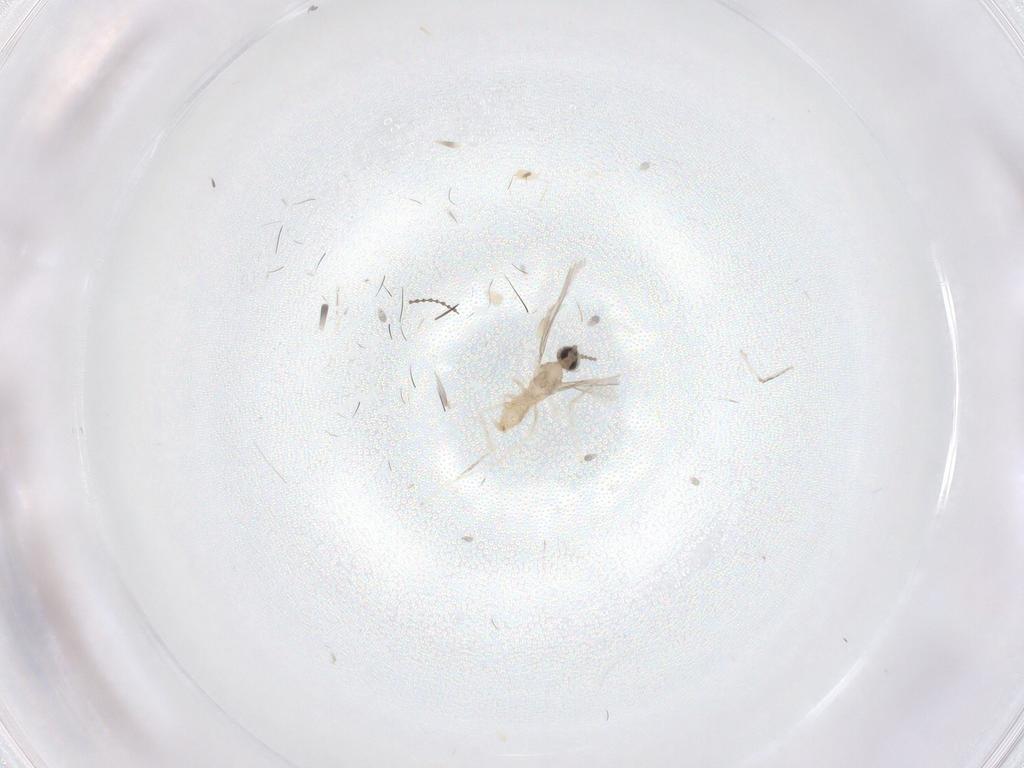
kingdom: Animalia
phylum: Arthropoda
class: Insecta
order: Diptera
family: Cecidomyiidae
